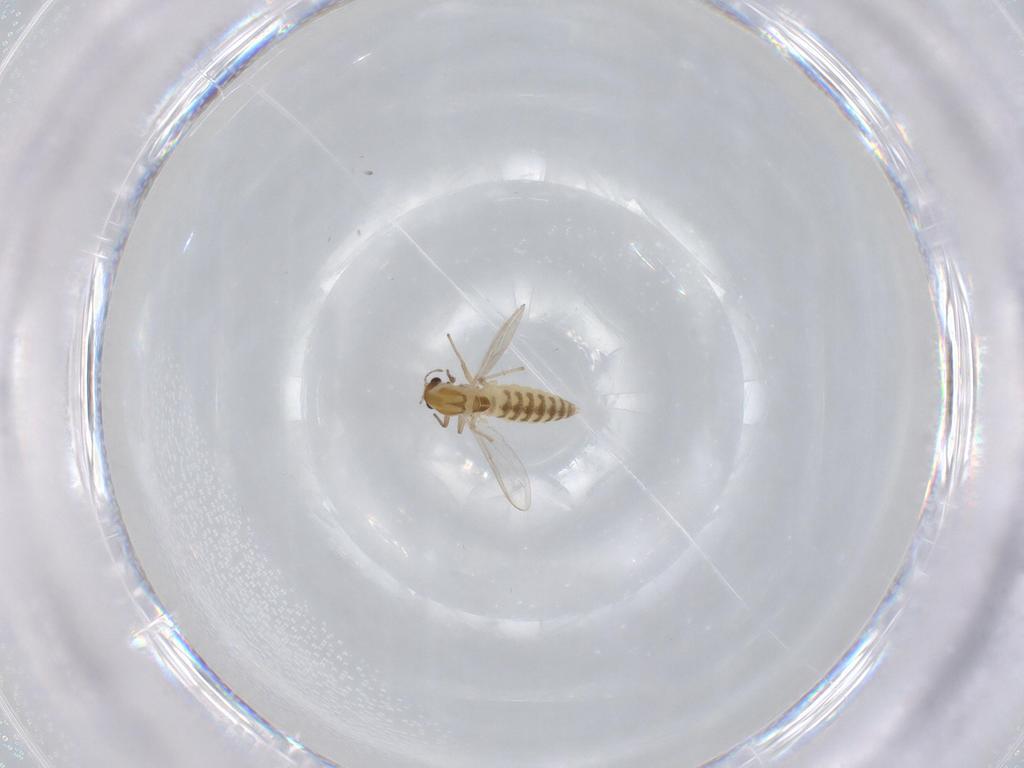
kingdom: Animalia
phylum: Arthropoda
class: Insecta
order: Diptera
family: Chironomidae
